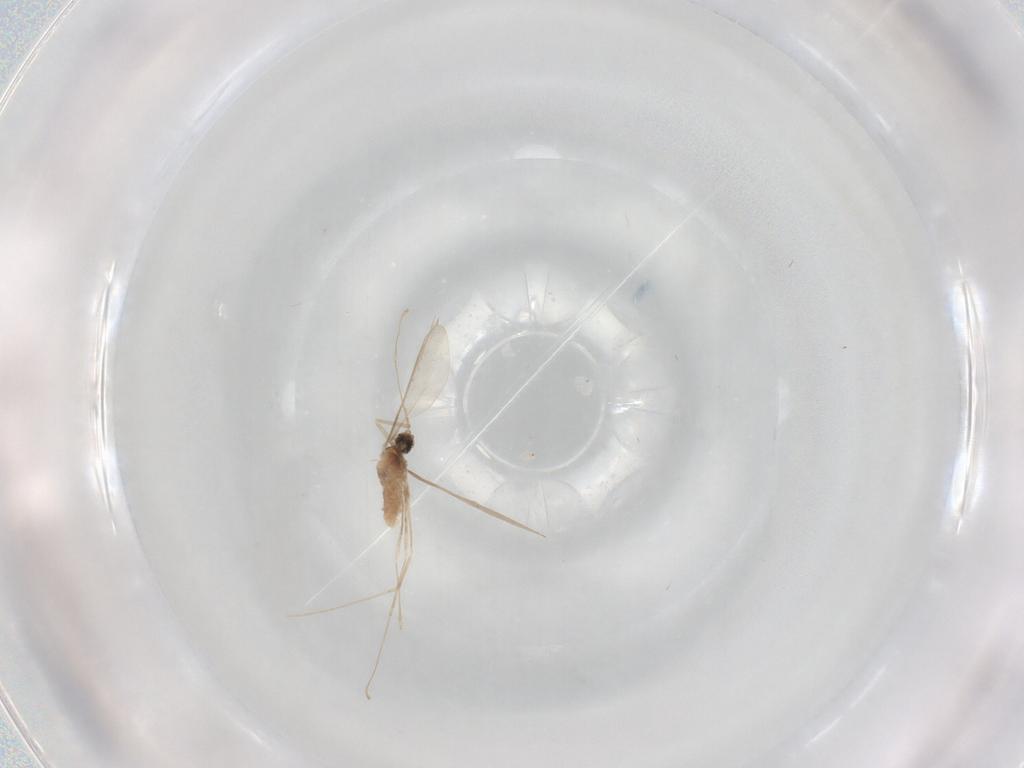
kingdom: Animalia
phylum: Arthropoda
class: Insecta
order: Diptera
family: Cecidomyiidae
